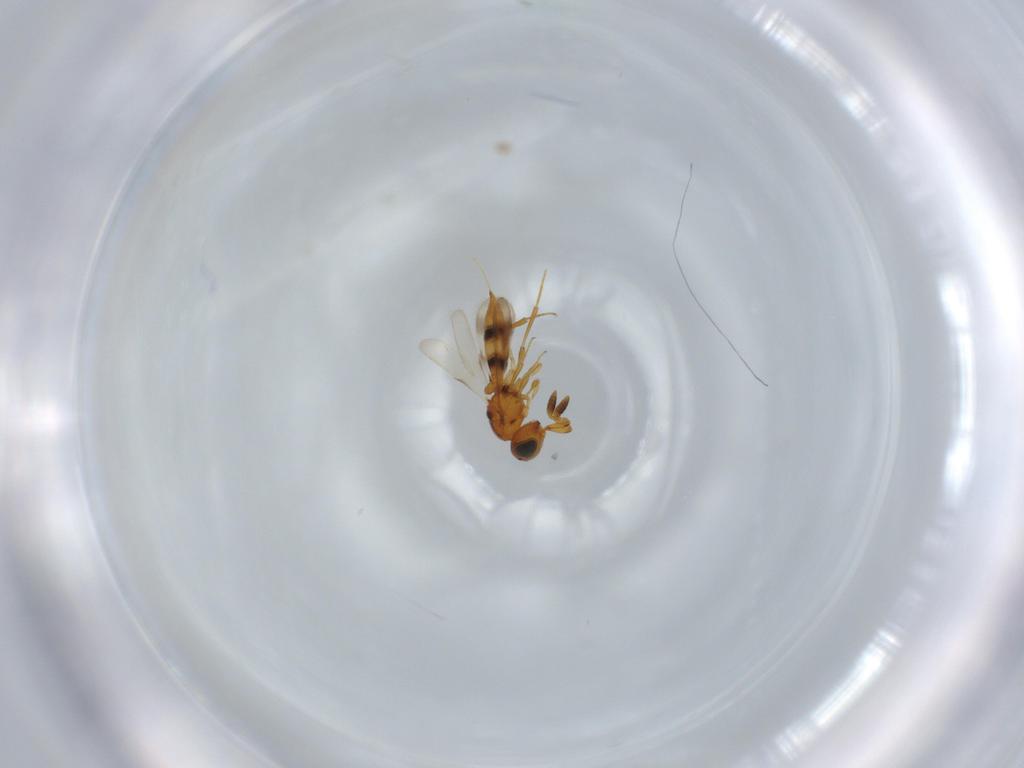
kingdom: Animalia
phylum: Arthropoda
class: Insecta
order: Hymenoptera
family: Scelionidae
